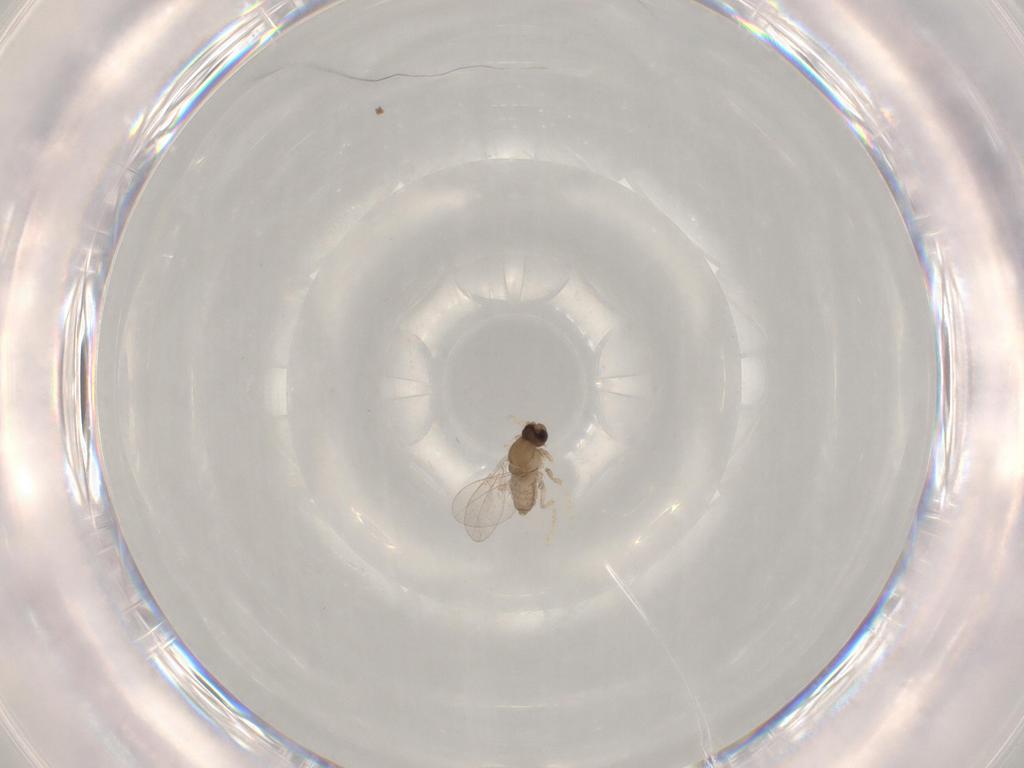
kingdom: Animalia
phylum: Arthropoda
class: Insecta
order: Diptera
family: Cecidomyiidae
